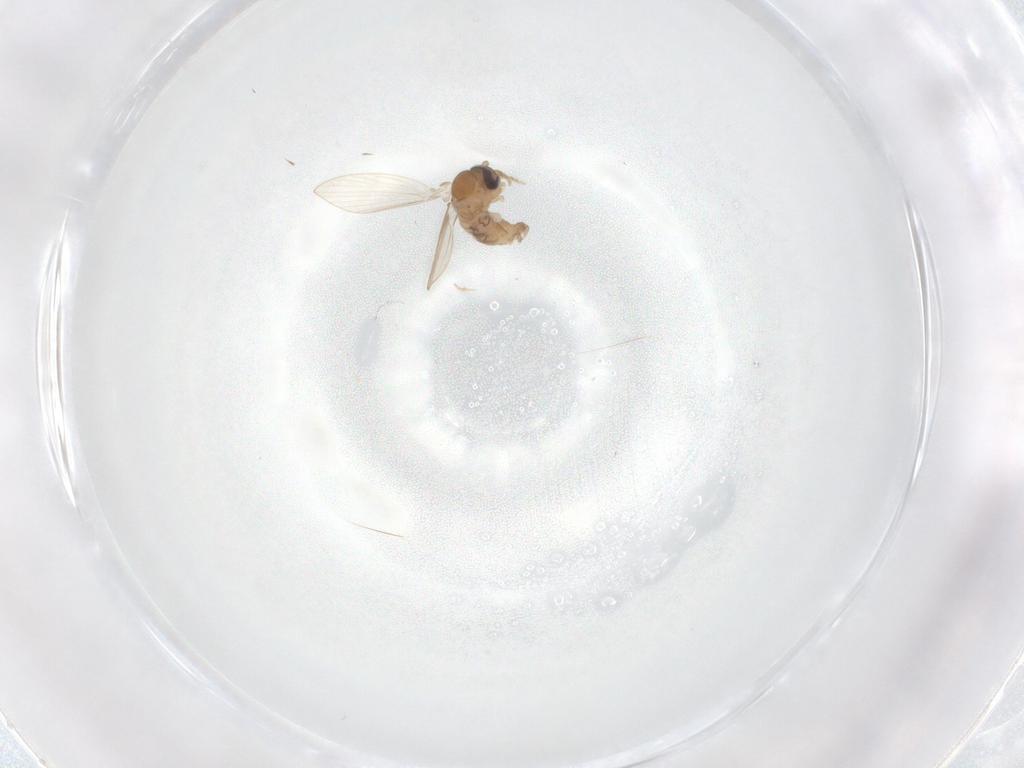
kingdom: Animalia
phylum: Arthropoda
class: Insecta
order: Diptera
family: Psychodidae
